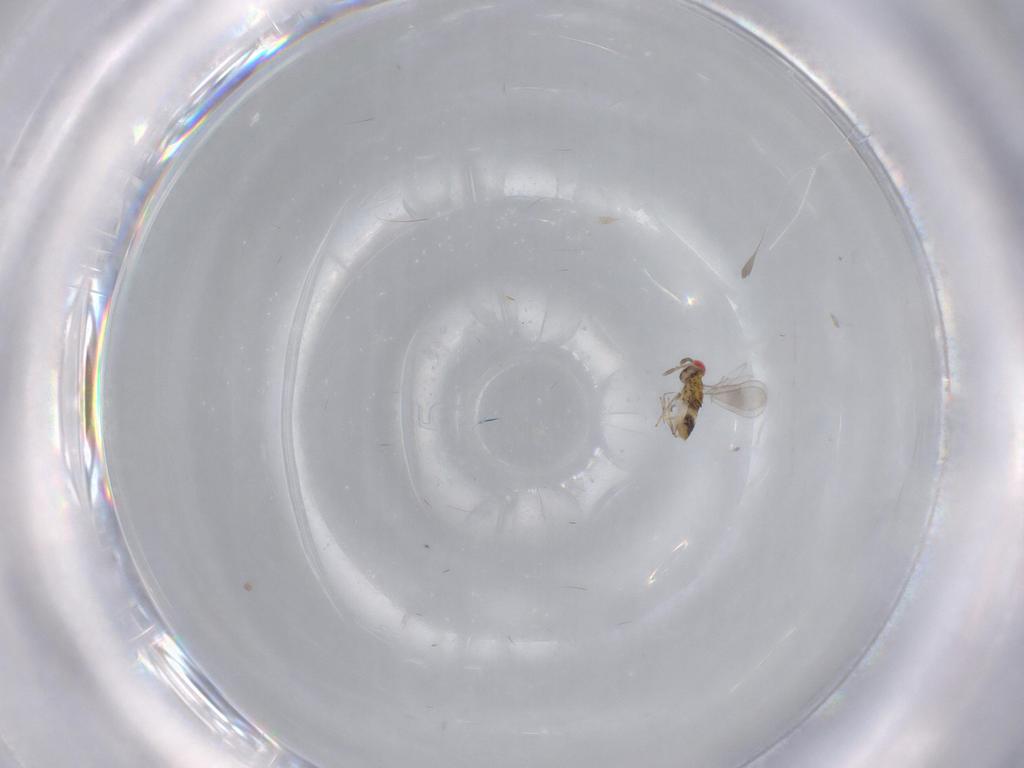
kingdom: Animalia
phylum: Arthropoda
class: Insecta
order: Hymenoptera
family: Aphelinidae
